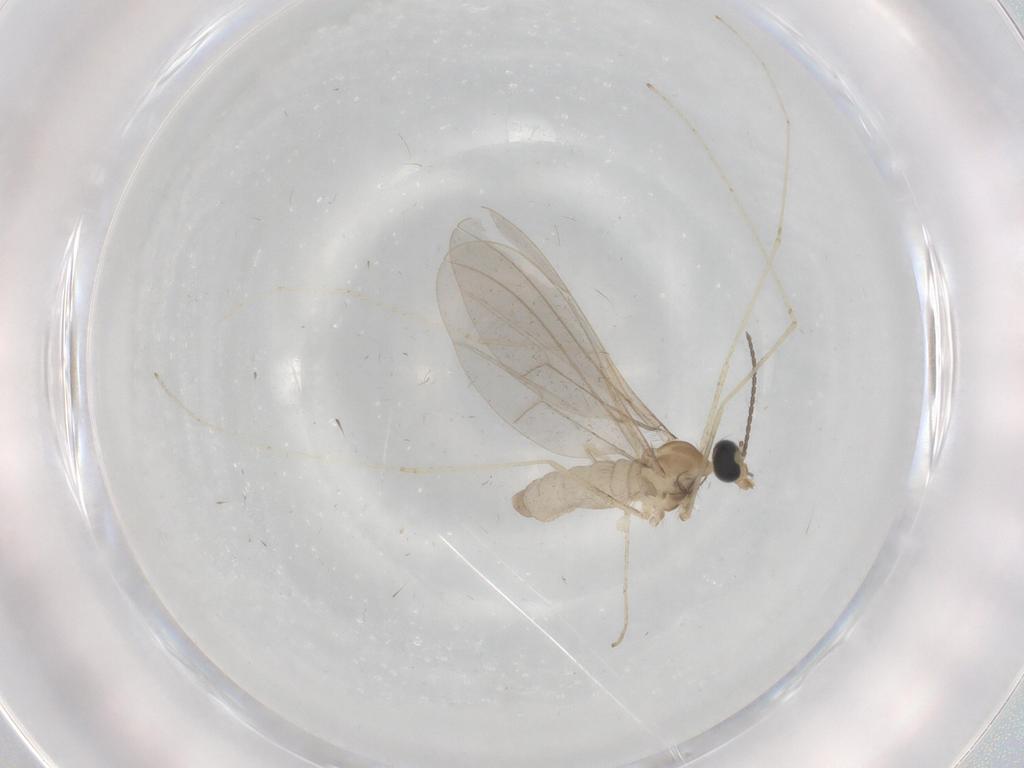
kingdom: Animalia
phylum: Arthropoda
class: Insecta
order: Diptera
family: Cecidomyiidae
